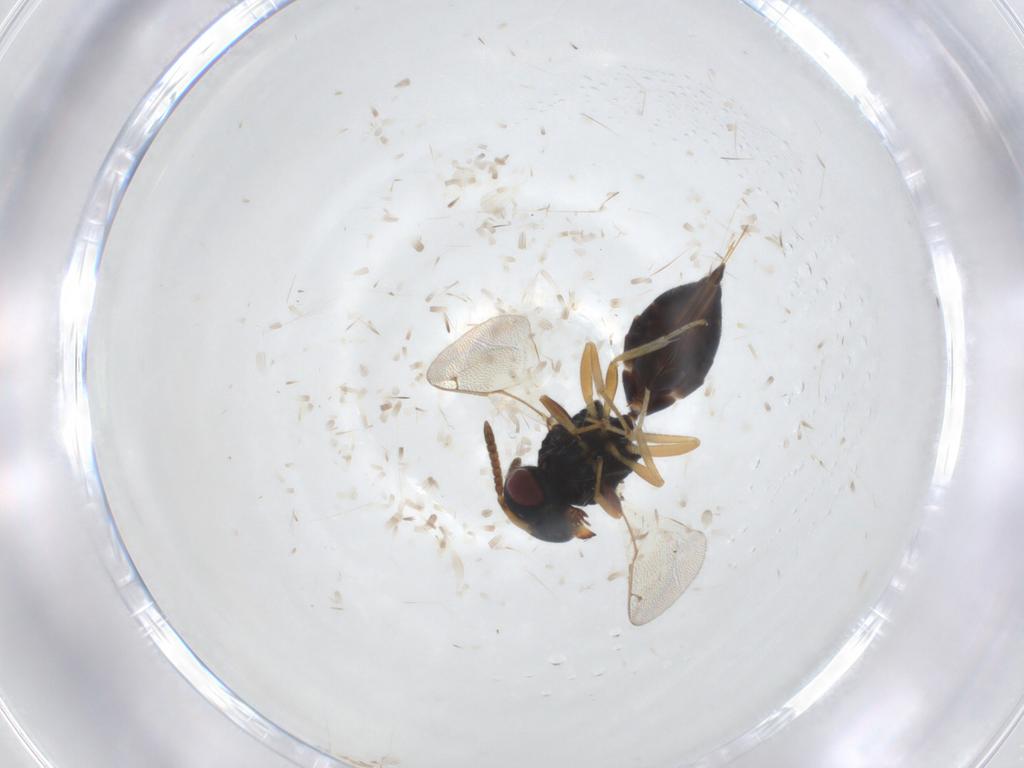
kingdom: Animalia
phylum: Arthropoda
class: Insecta
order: Hymenoptera
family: Pteromalidae
